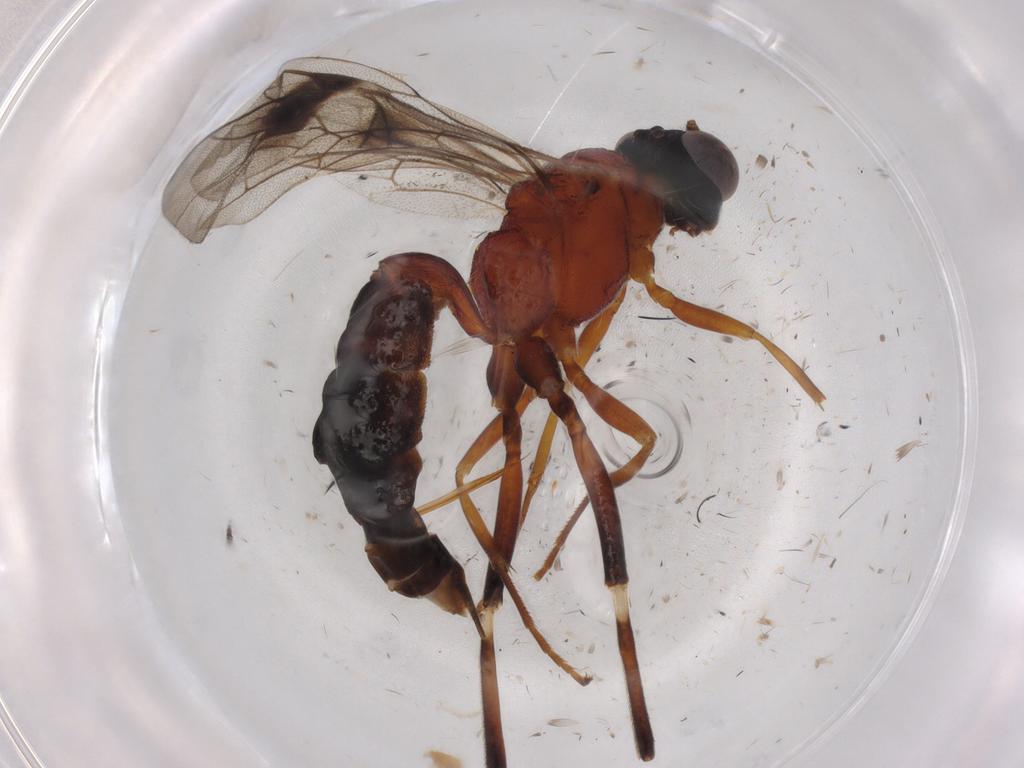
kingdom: Animalia
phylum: Arthropoda
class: Insecta
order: Hymenoptera
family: Ichneumonidae
